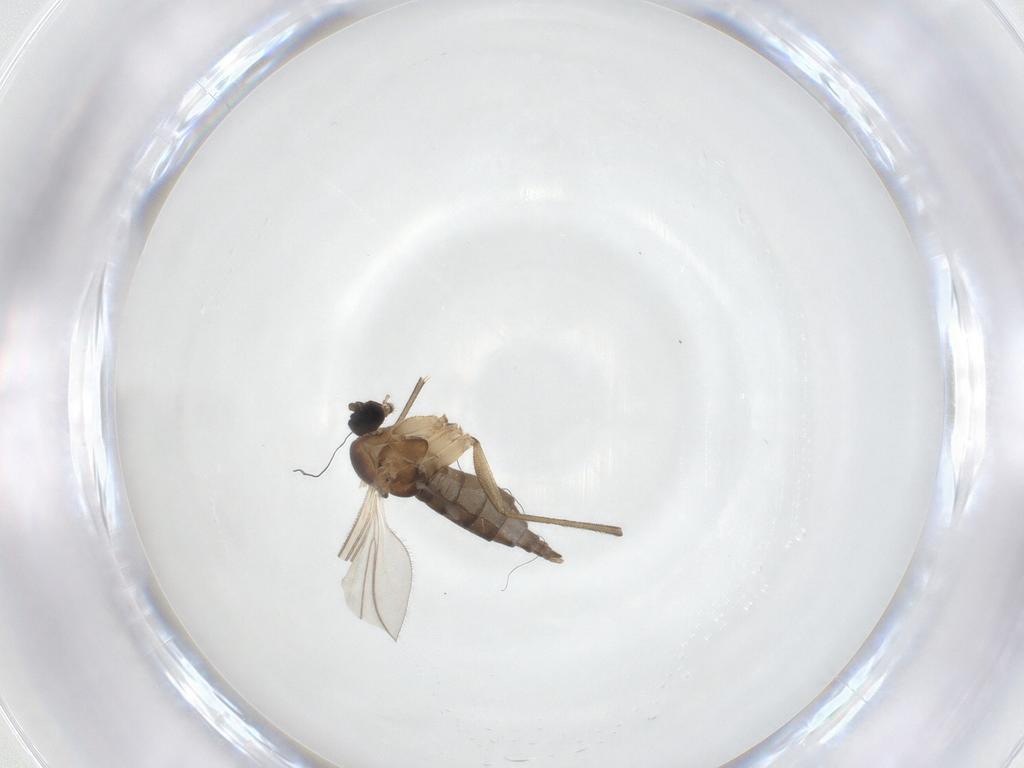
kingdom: Animalia
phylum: Arthropoda
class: Insecta
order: Diptera
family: Sciaridae
